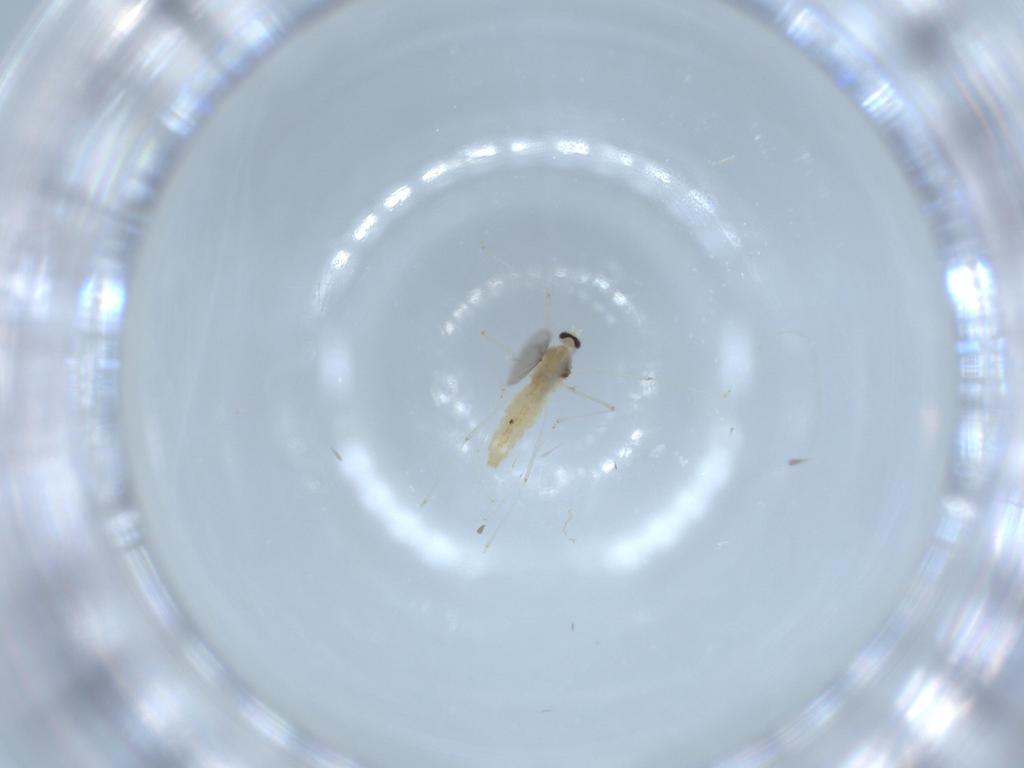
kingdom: Animalia
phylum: Arthropoda
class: Insecta
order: Diptera
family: Cecidomyiidae
